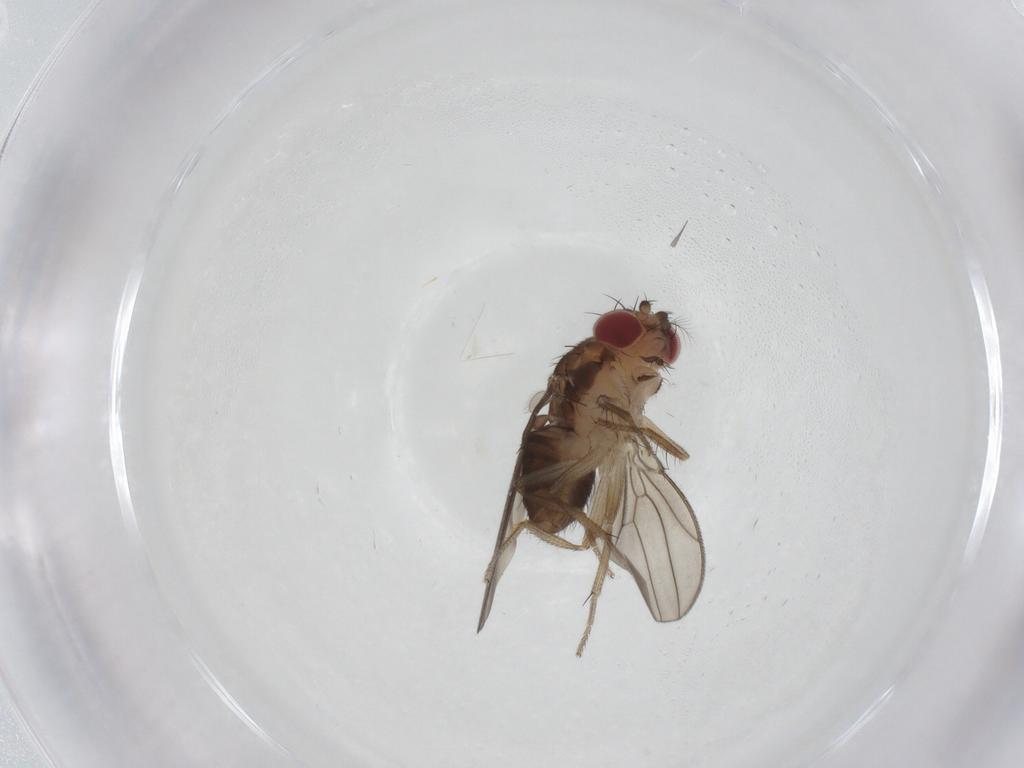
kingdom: Animalia
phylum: Arthropoda
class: Insecta
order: Diptera
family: Drosophilidae
